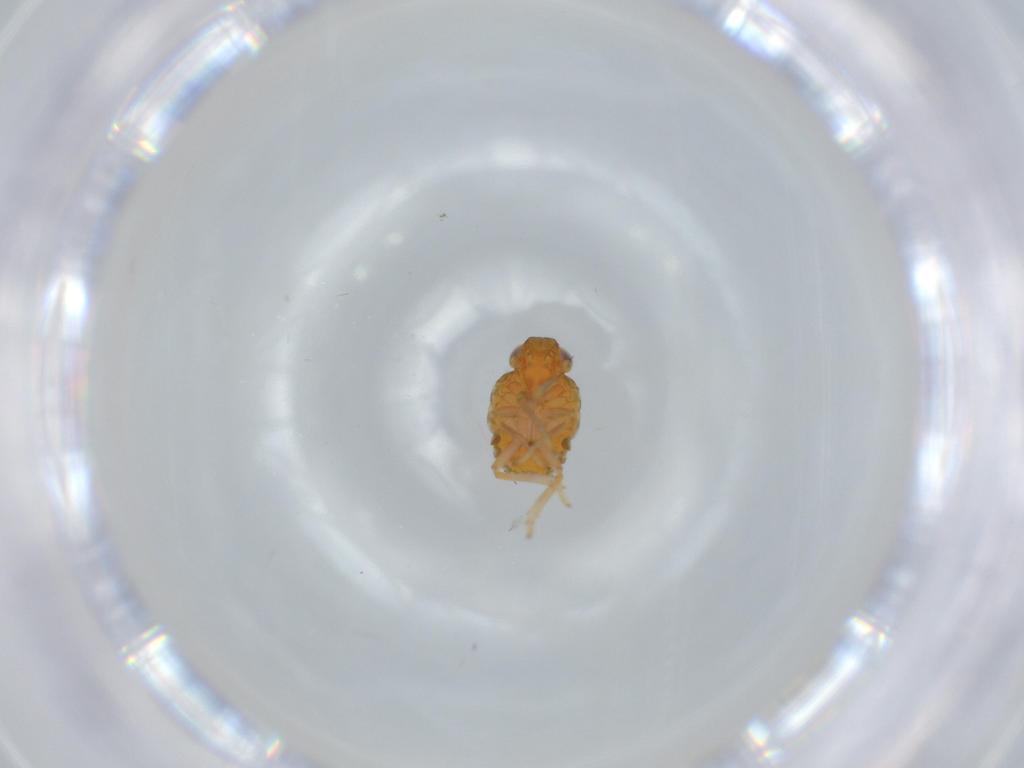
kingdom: Animalia
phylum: Arthropoda
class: Insecta
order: Hemiptera
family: Issidae
